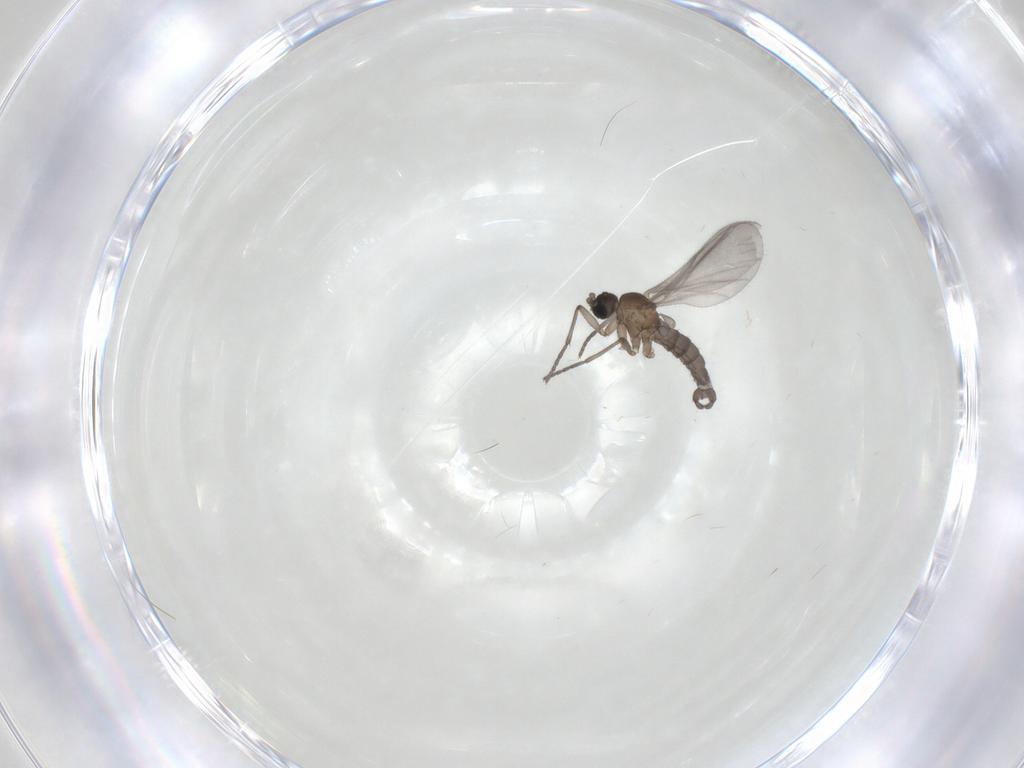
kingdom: Animalia
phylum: Arthropoda
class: Insecta
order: Diptera
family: Sciaridae
